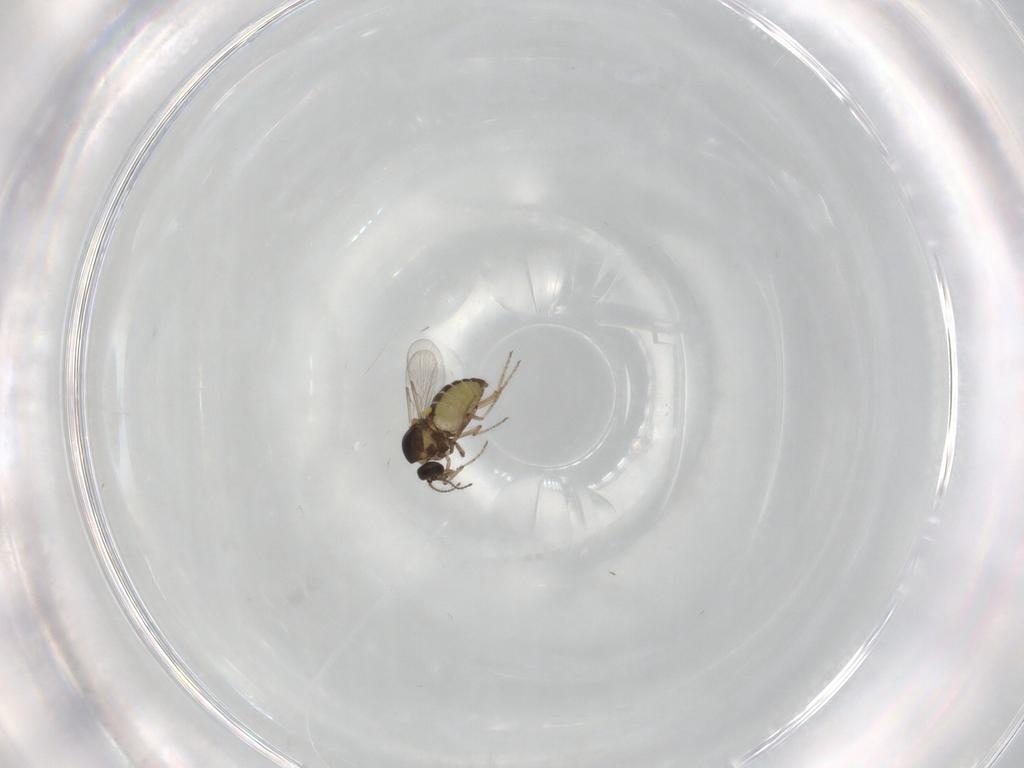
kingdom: Animalia
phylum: Arthropoda
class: Insecta
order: Diptera
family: Ceratopogonidae
